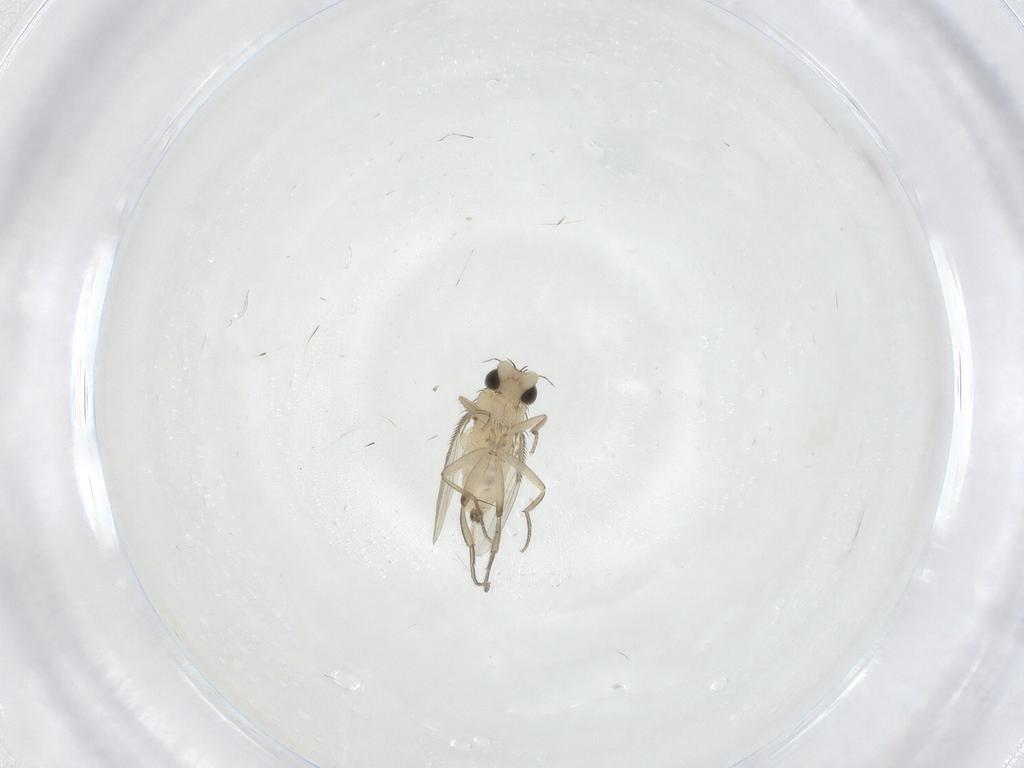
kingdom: Animalia
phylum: Arthropoda
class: Insecta
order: Diptera
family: Phoridae
